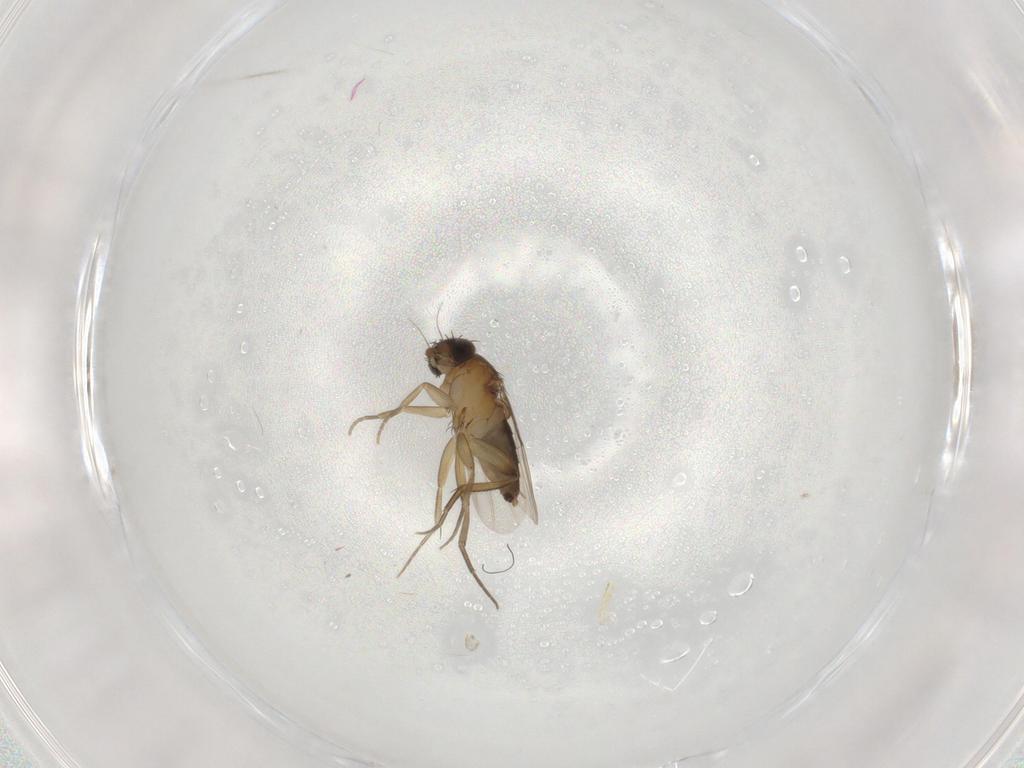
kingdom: Animalia
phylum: Arthropoda
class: Insecta
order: Diptera
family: Phoridae
